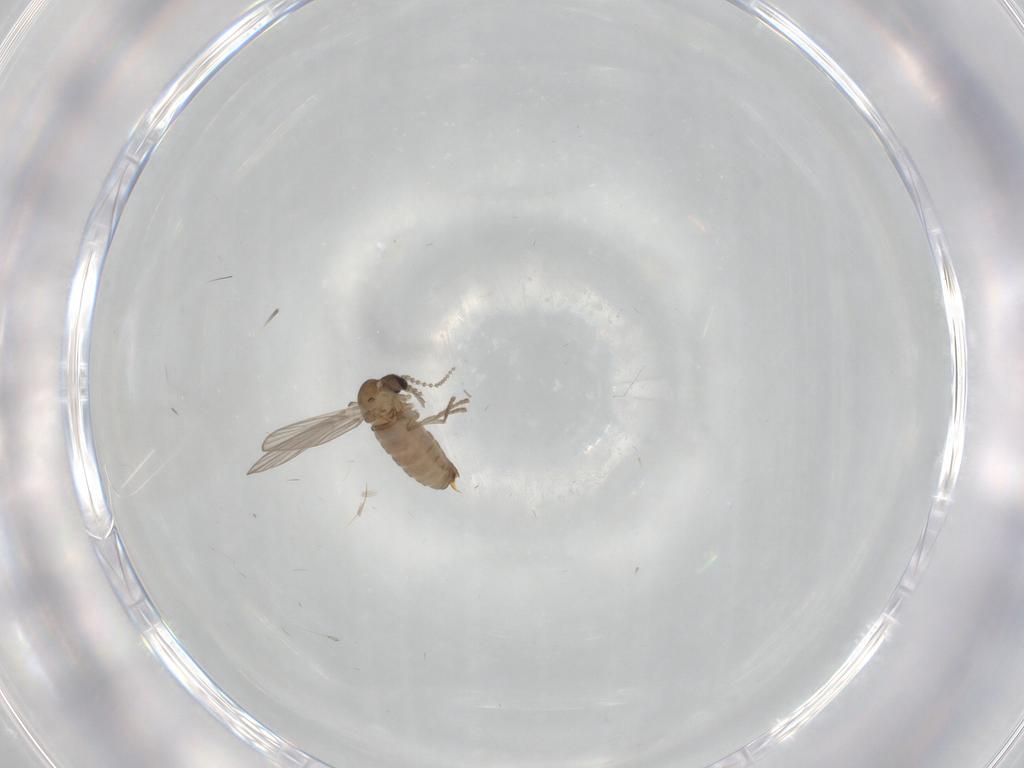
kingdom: Animalia
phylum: Arthropoda
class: Insecta
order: Diptera
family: Psychodidae
